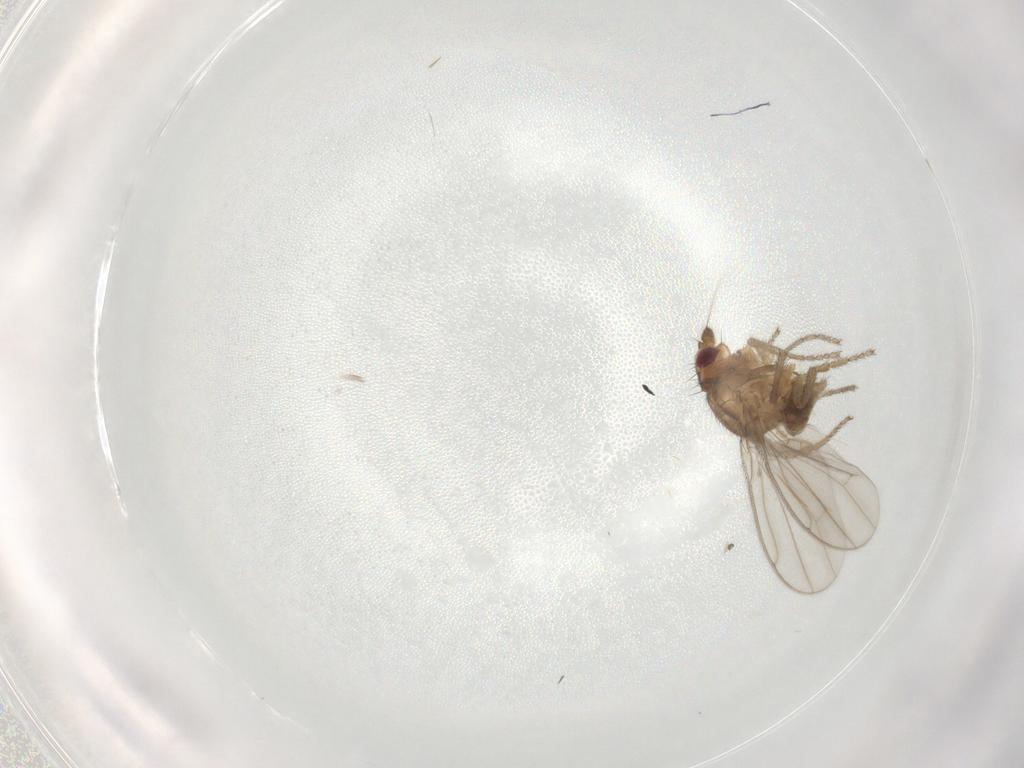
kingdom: Animalia
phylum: Arthropoda
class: Insecta
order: Diptera
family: Sphaeroceridae
